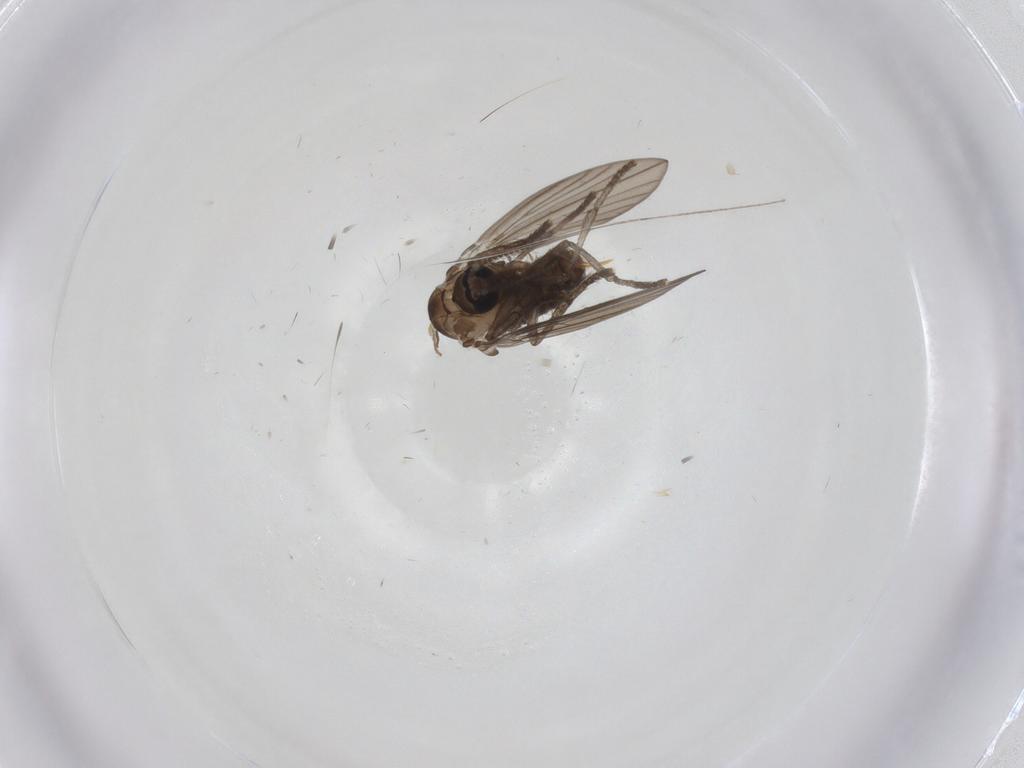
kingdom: Animalia
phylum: Arthropoda
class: Insecta
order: Diptera
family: Psychodidae
